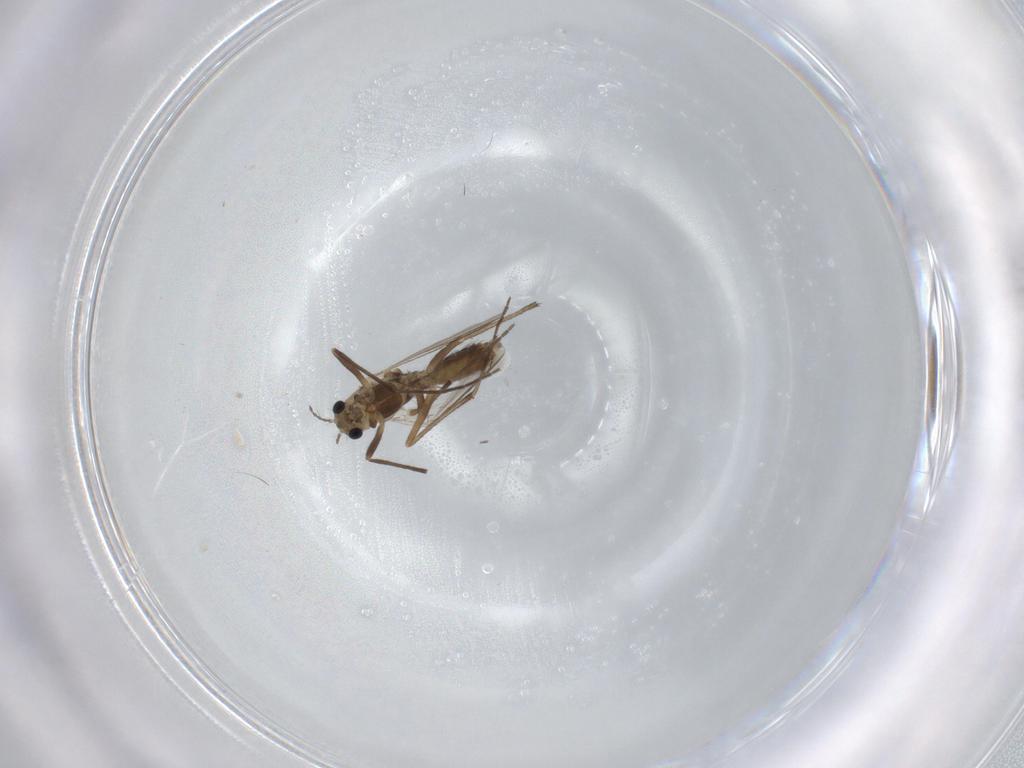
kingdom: Animalia
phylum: Arthropoda
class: Insecta
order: Diptera
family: Chironomidae
